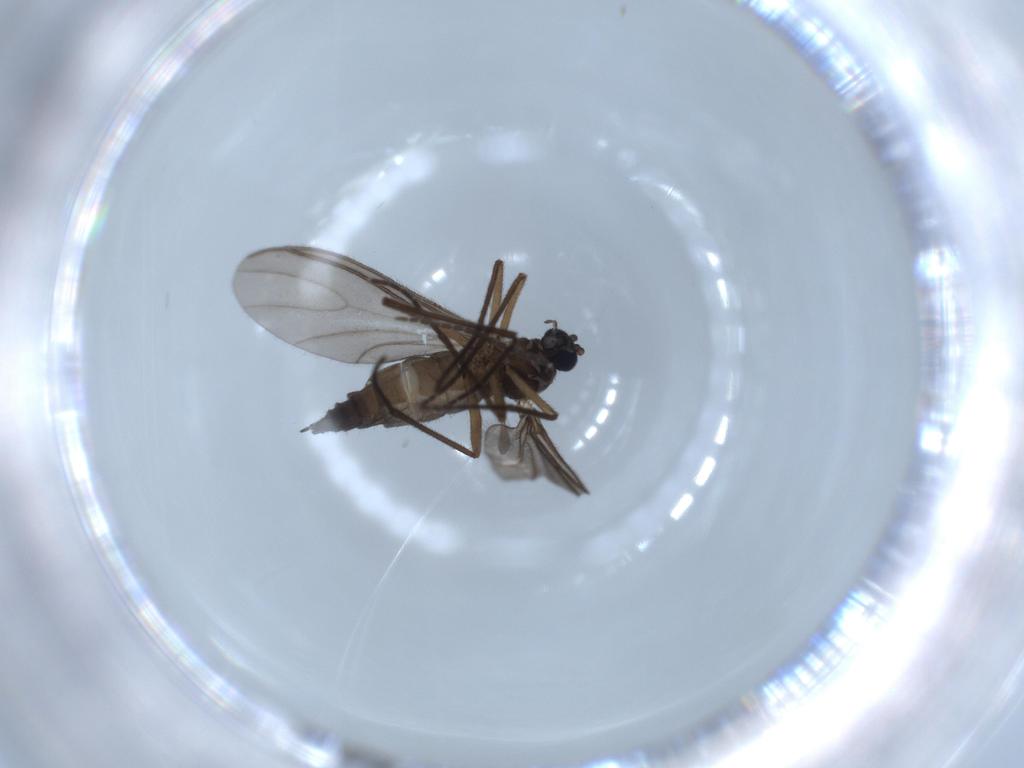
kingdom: Animalia
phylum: Arthropoda
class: Insecta
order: Diptera
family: Sciaridae
